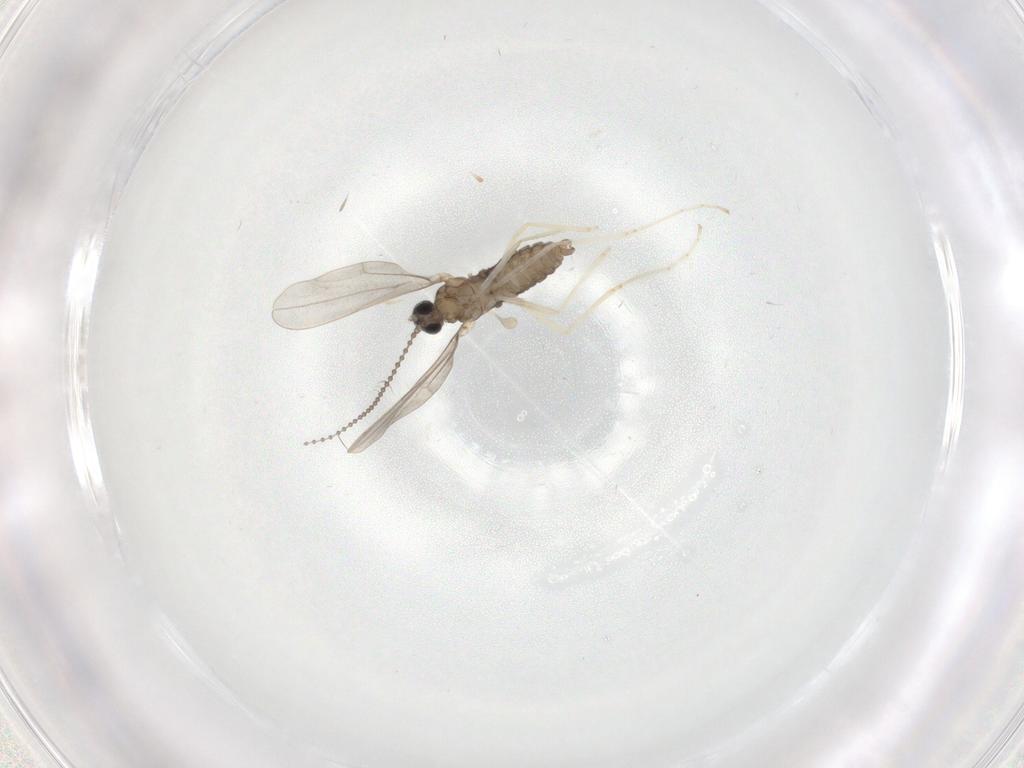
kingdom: Animalia
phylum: Arthropoda
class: Insecta
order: Diptera
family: Cecidomyiidae
